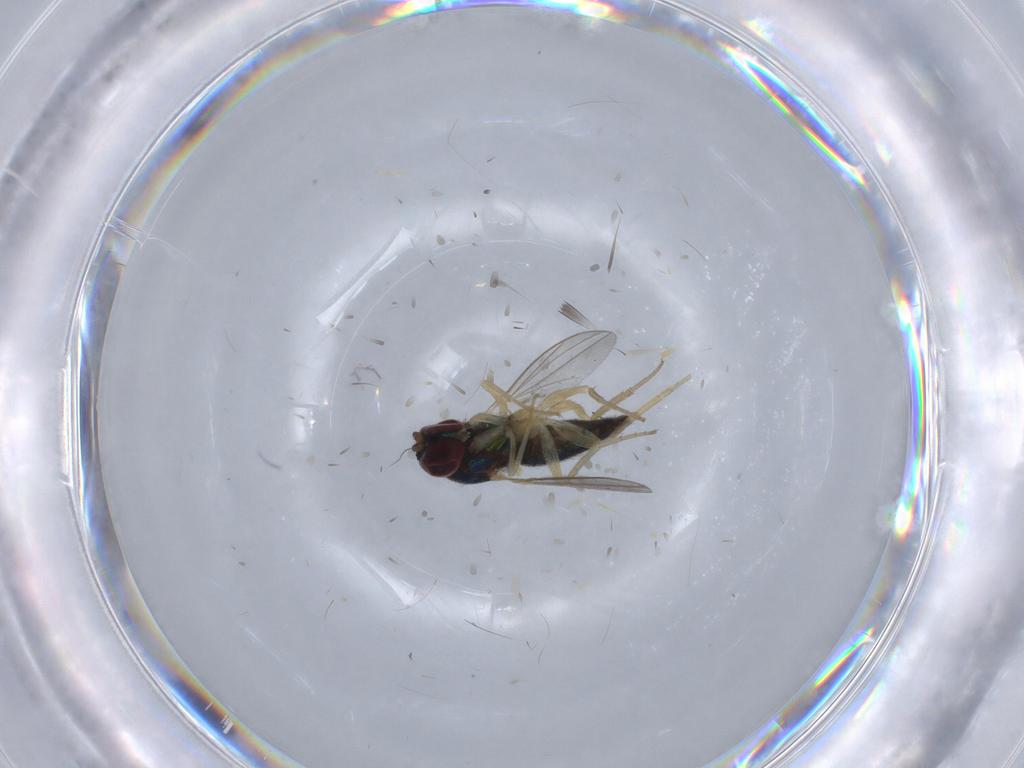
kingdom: Animalia
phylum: Arthropoda
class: Insecta
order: Diptera
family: Dolichopodidae
